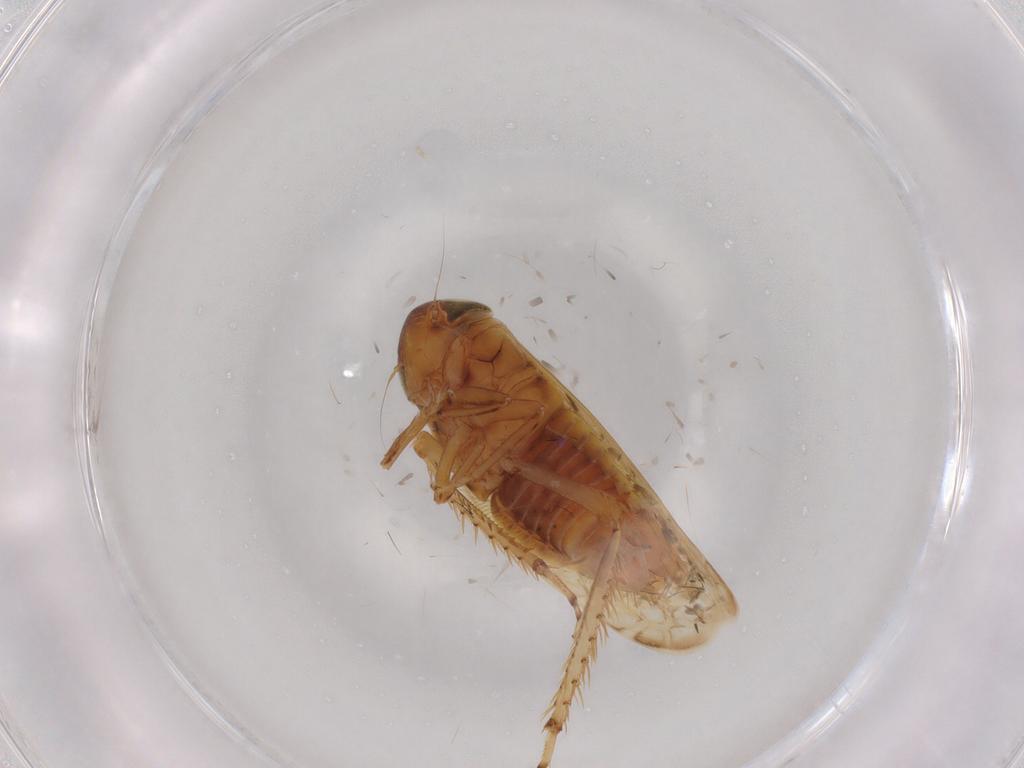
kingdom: Animalia
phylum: Arthropoda
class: Insecta
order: Hemiptera
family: Cicadellidae
